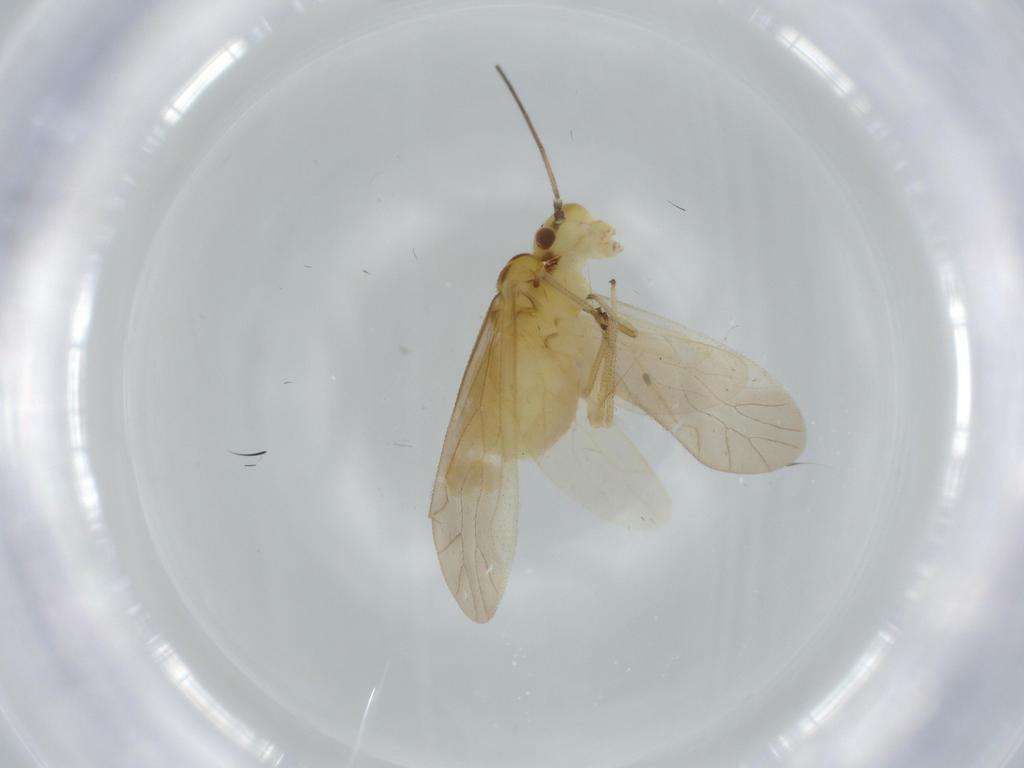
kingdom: Animalia
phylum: Arthropoda
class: Insecta
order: Psocodea
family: Caeciliusidae
